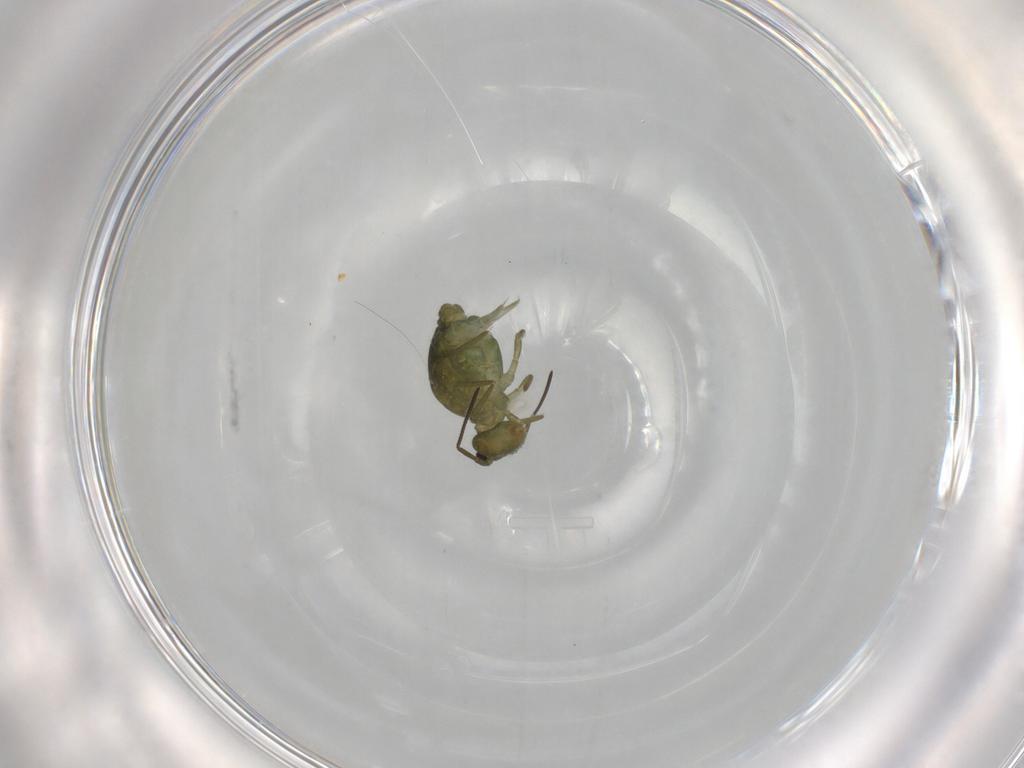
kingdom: Animalia
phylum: Arthropoda
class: Collembola
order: Symphypleona
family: Sminthuridae
